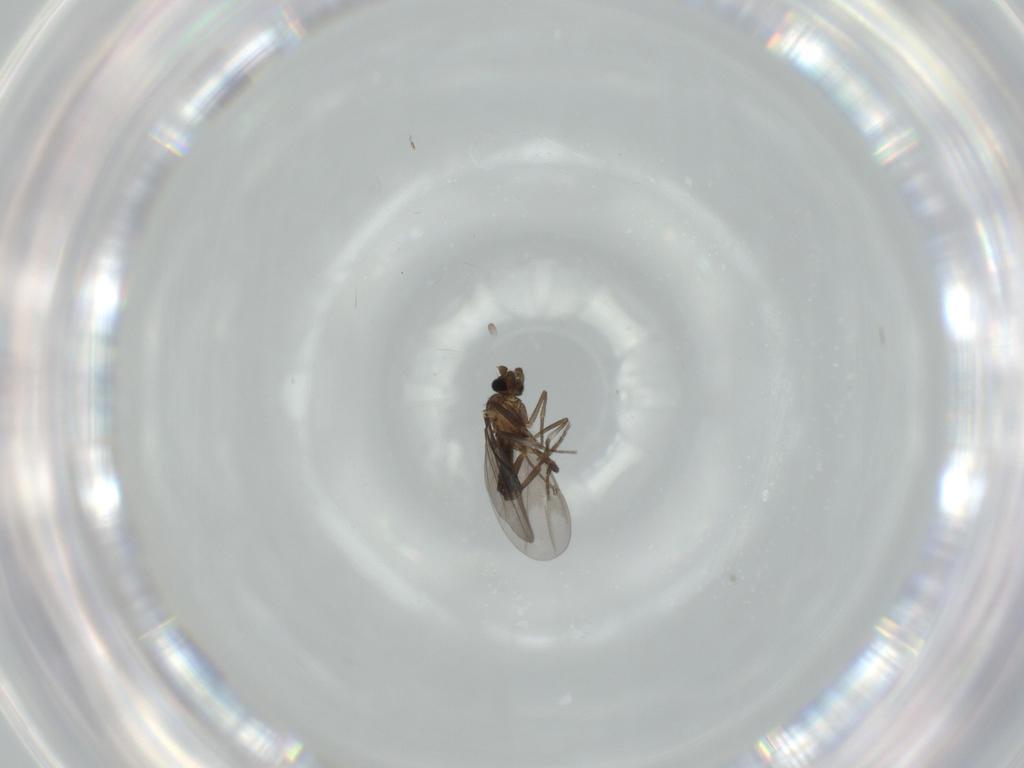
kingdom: Animalia
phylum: Arthropoda
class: Insecta
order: Diptera
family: Phoridae
